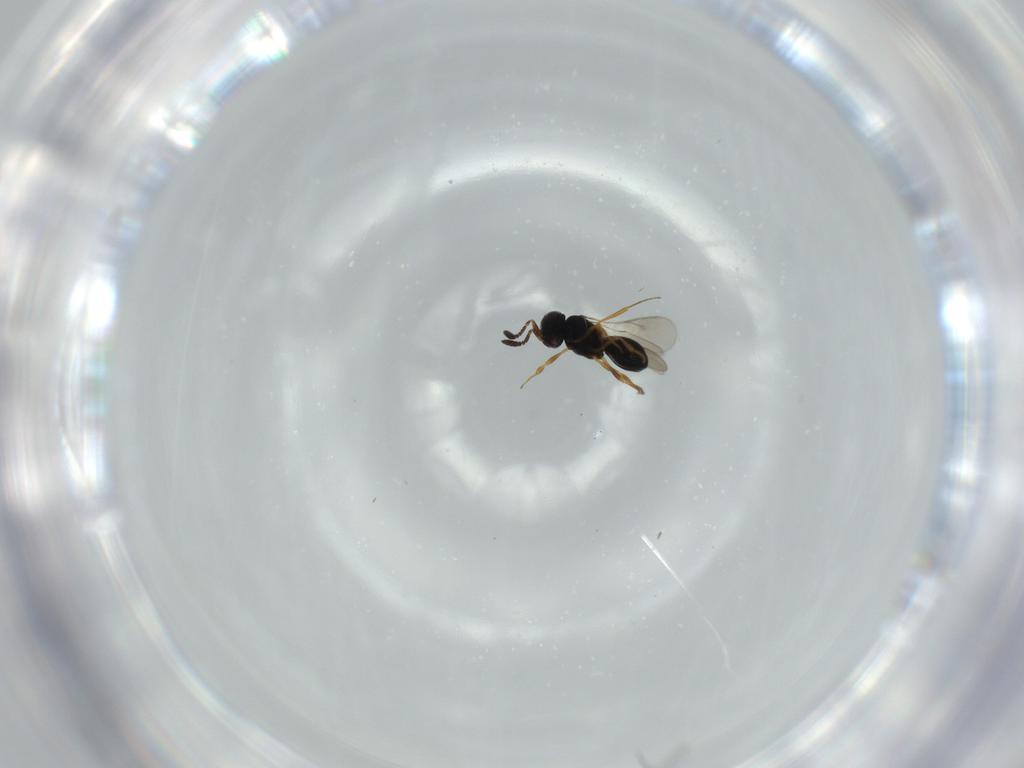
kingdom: Animalia
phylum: Arthropoda
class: Insecta
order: Hymenoptera
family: Scelionidae
